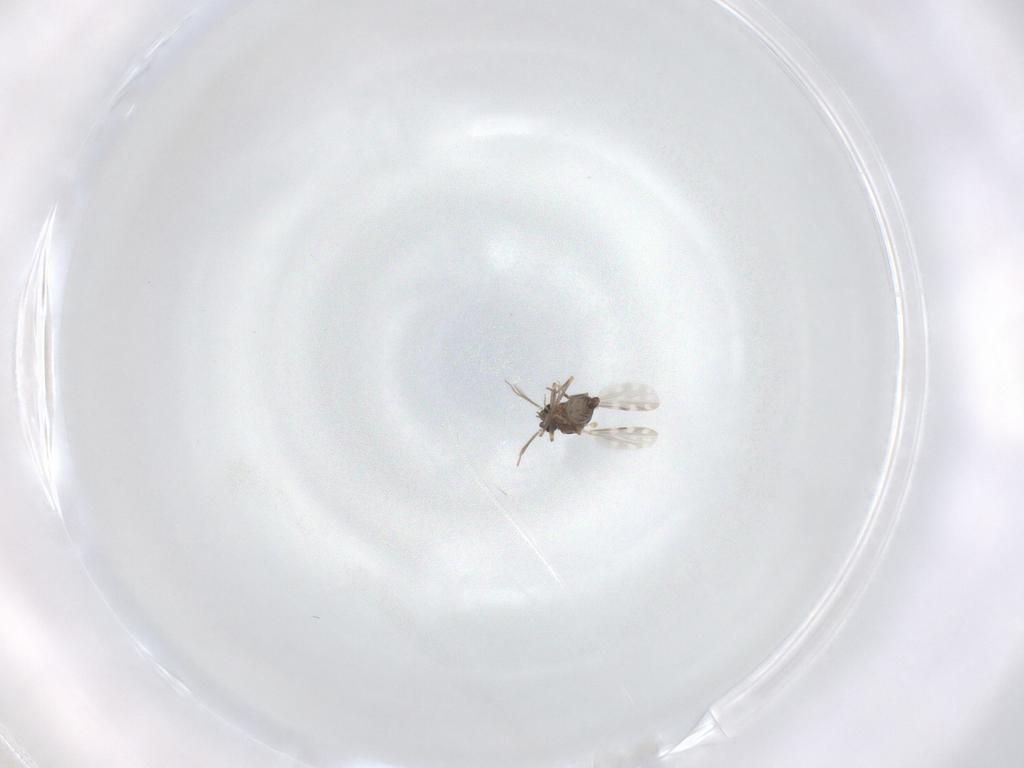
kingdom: Animalia
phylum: Arthropoda
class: Insecta
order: Diptera
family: Ceratopogonidae
